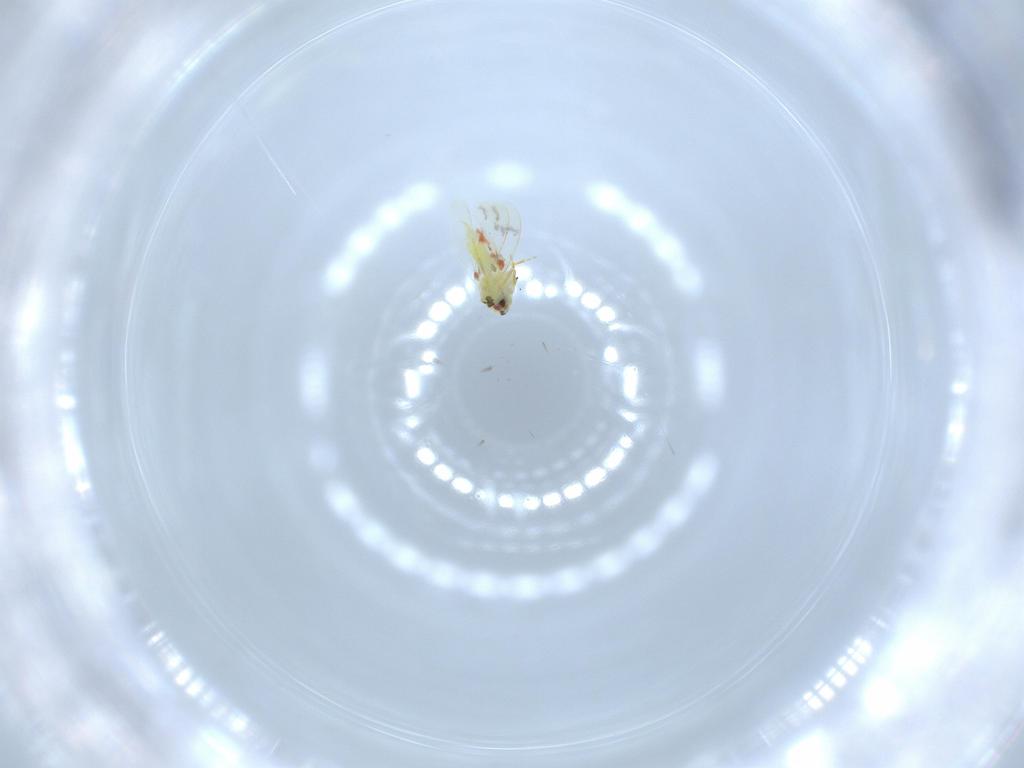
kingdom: Animalia
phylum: Arthropoda
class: Insecta
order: Hemiptera
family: Aleyrodidae
